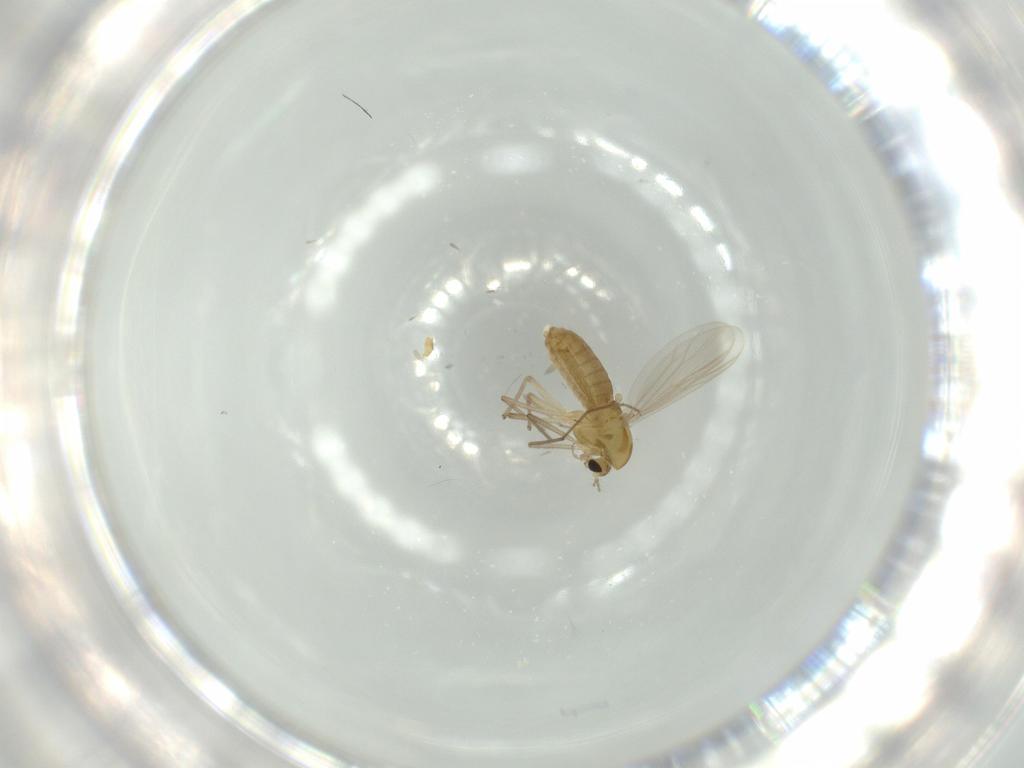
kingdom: Animalia
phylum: Arthropoda
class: Insecta
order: Diptera
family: Chironomidae
